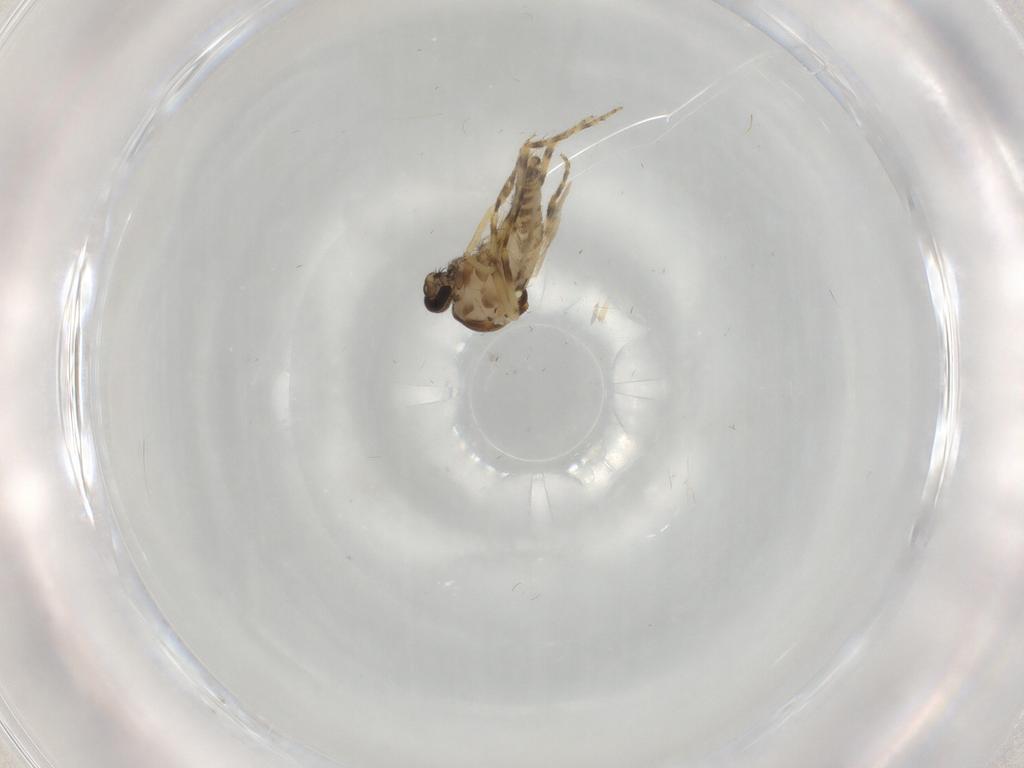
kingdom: Animalia
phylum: Arthropoda
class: Insecta
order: Diptera
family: Ceratopogonidae
